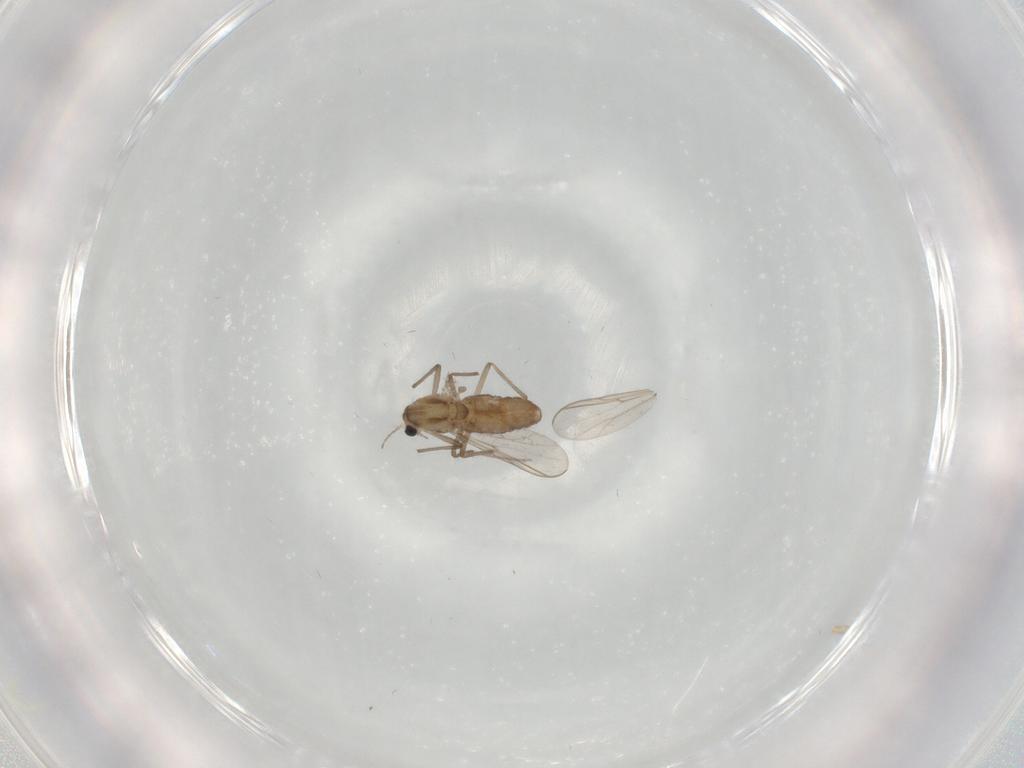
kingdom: Animalia
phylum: Arthropoda
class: Insecta
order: Diptera
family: Chironomidae
